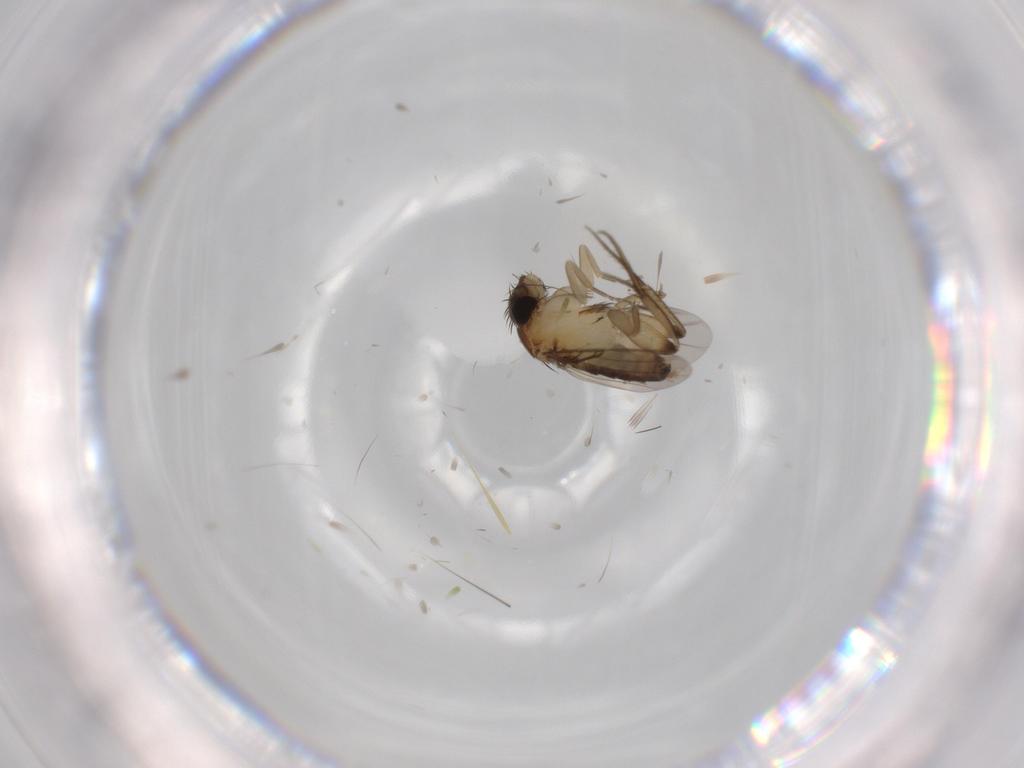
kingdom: Animalia
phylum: Arthropoda
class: Insecta
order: Diptera
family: Phoridae
